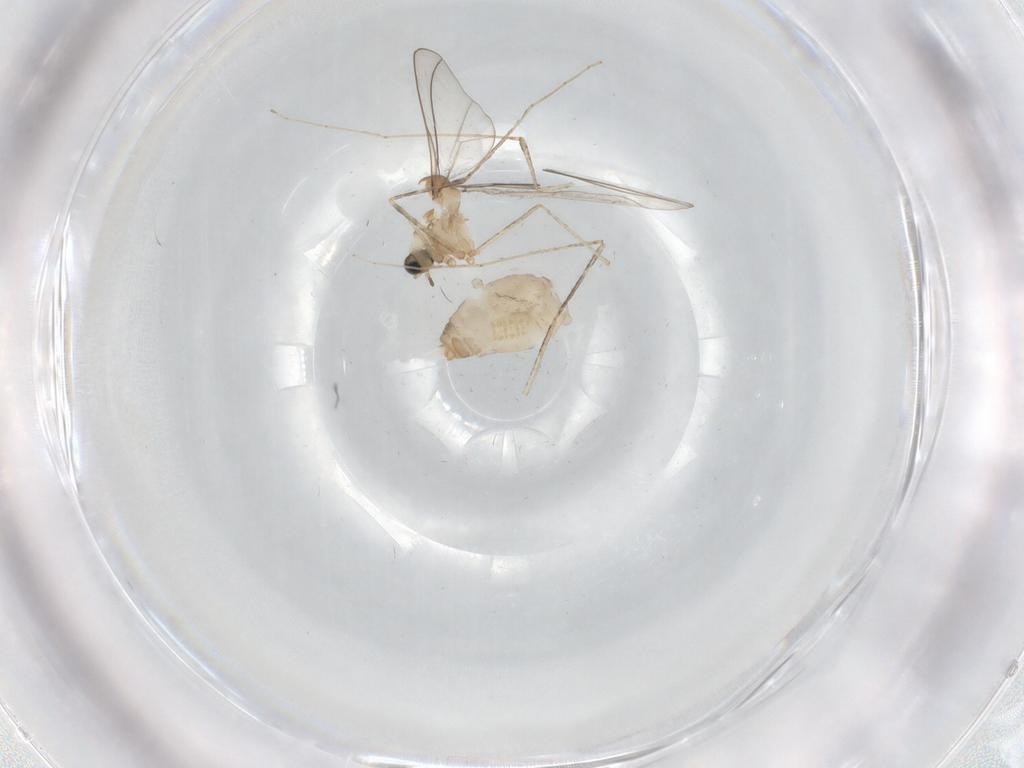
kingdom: Animalia
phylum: Arthropoda
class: Insecta
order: Diptera
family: Cecidomyiidae
